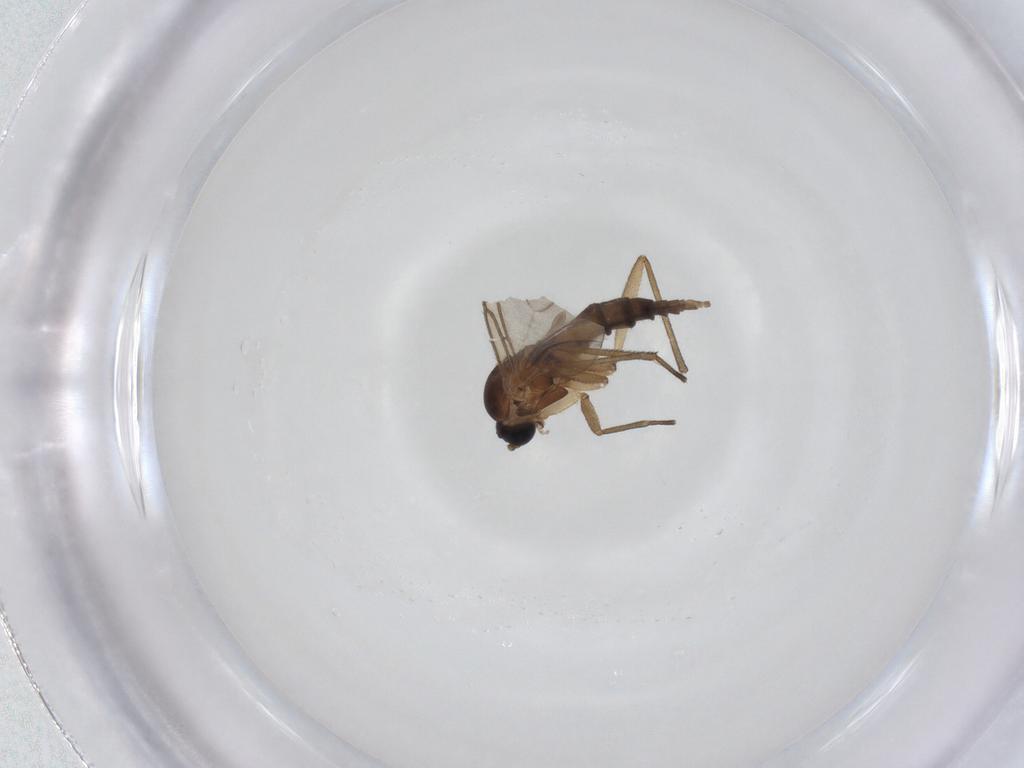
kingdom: Animalia
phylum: Arthropoda
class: Insecta
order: Diptera
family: Sciaridae
